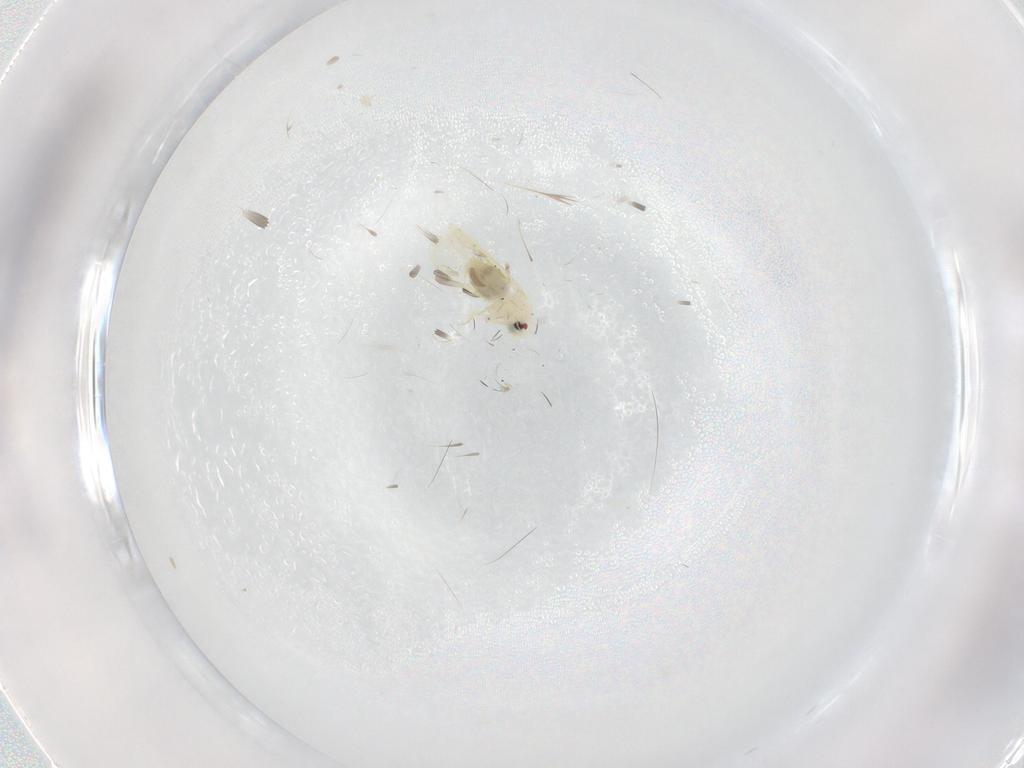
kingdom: Animalia
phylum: Arthropoda
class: Insecta
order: Hemiptera
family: Aleyrodidae
